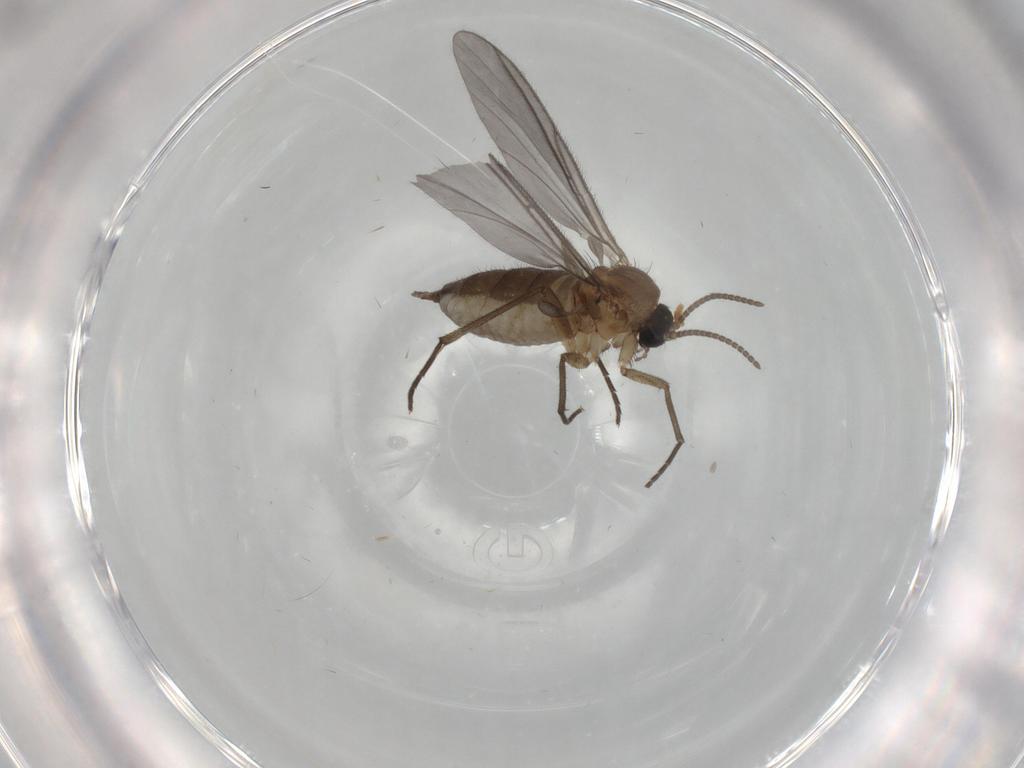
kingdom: Animalia
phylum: Arthropoda
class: Insecta
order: Diptera
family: Sciaridae
